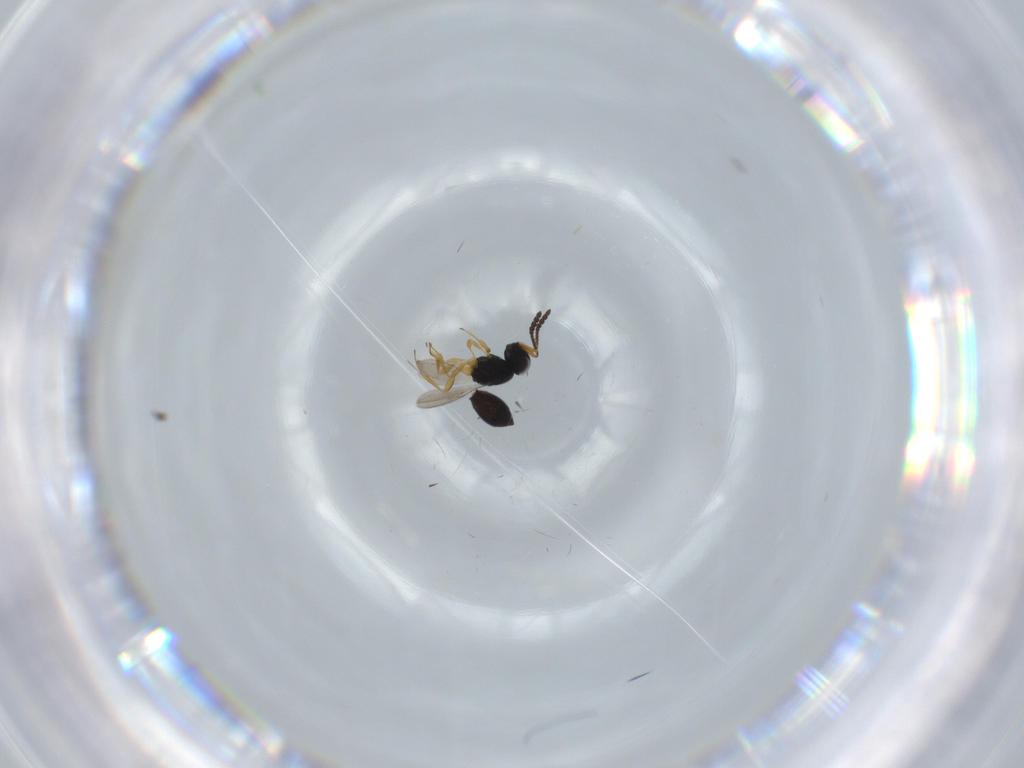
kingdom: Animalia
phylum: Arthropoda
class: Insecta
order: Hymenoptera
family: Scelionidae
